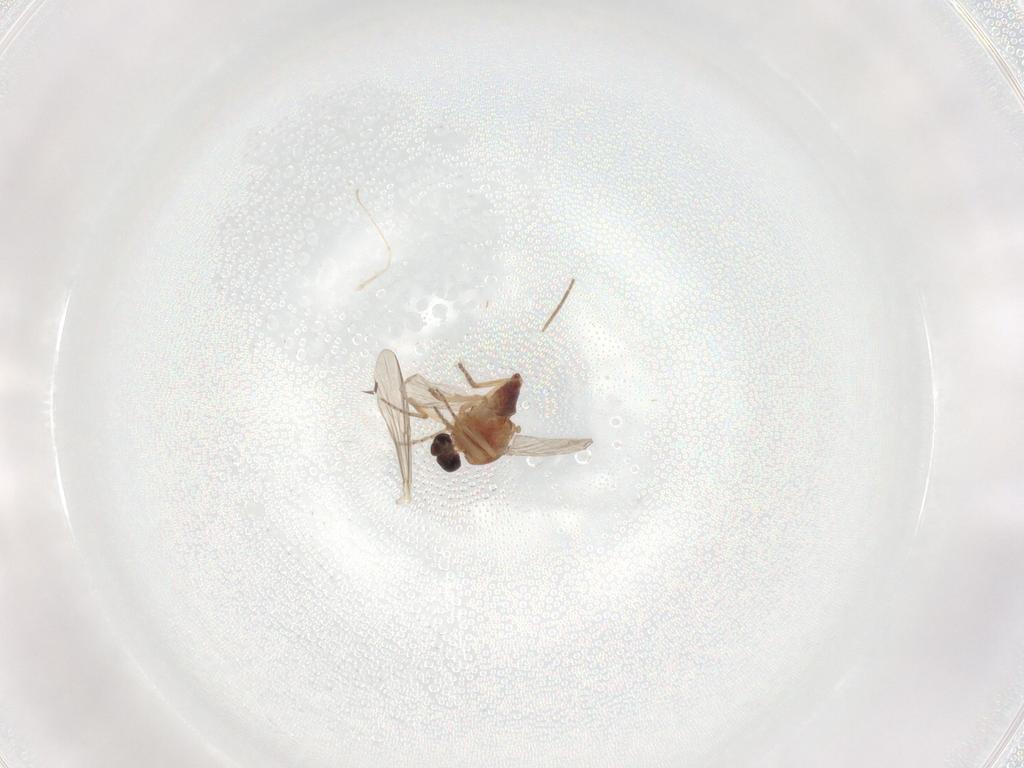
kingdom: Animalia
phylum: Arthropoda
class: Insecta
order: Diptera
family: Ceratopogonidae
